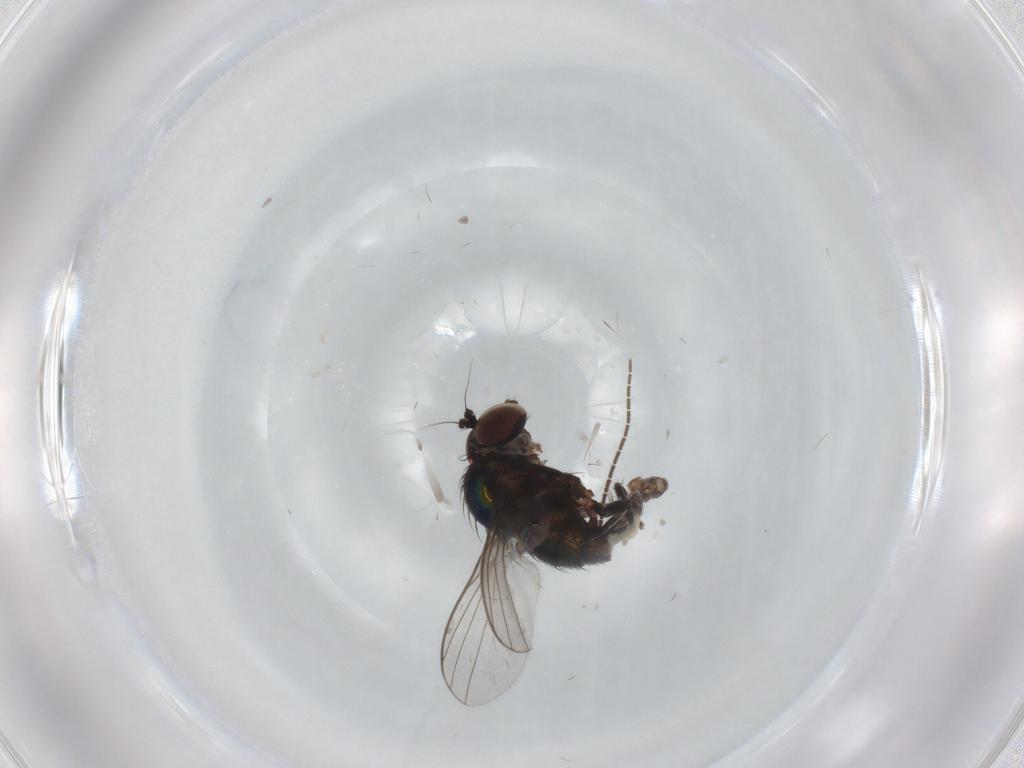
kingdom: Animalia
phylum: Arthropoda
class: Insecta
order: Diptera
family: Dolichopodidae
